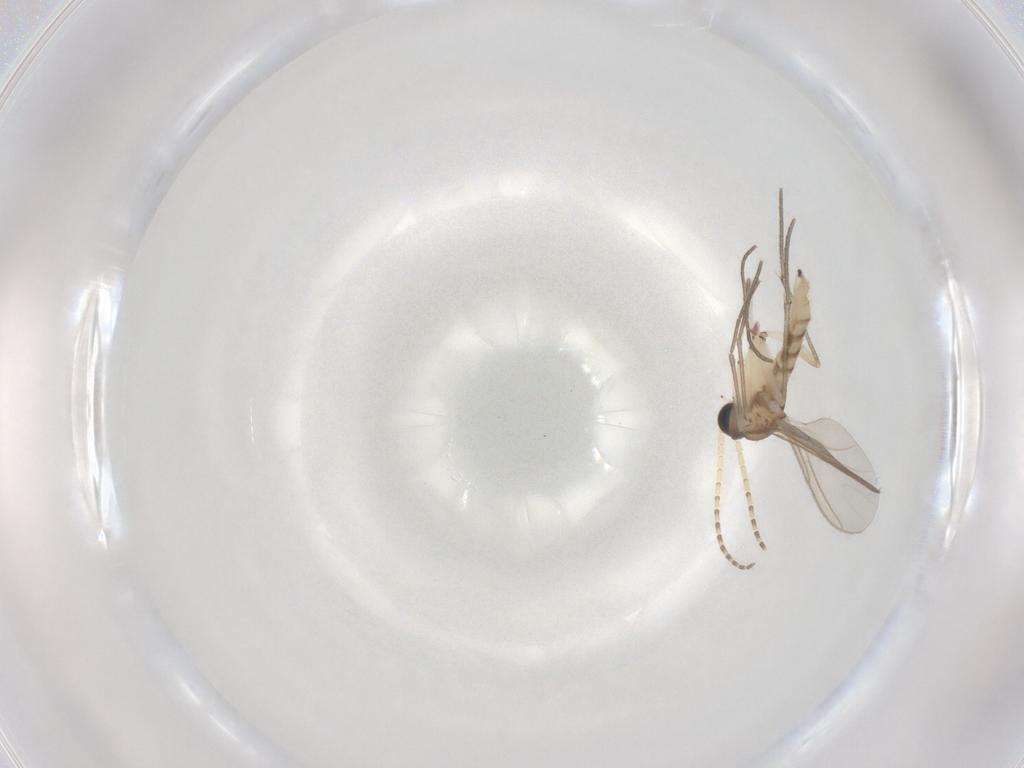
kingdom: Animalia
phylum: Arthropoda
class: Insecta
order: Diptera
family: Sciaridae
